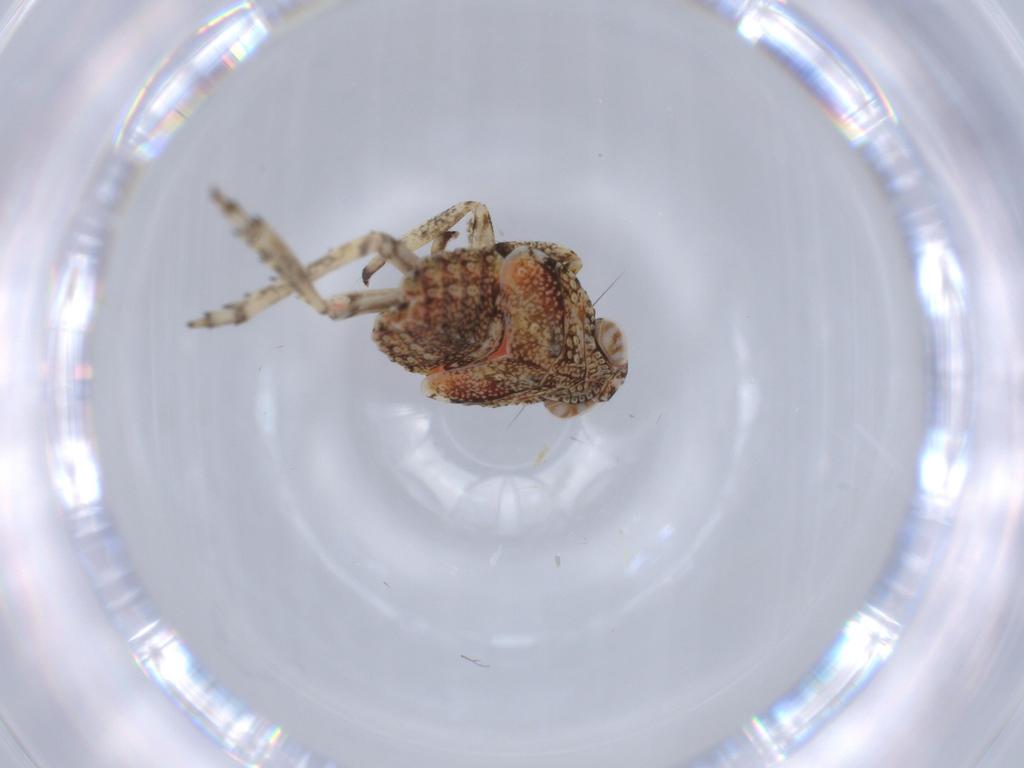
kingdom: Animalia
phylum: Arthropoda
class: Insecta
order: Hemiptera
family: Issidae
